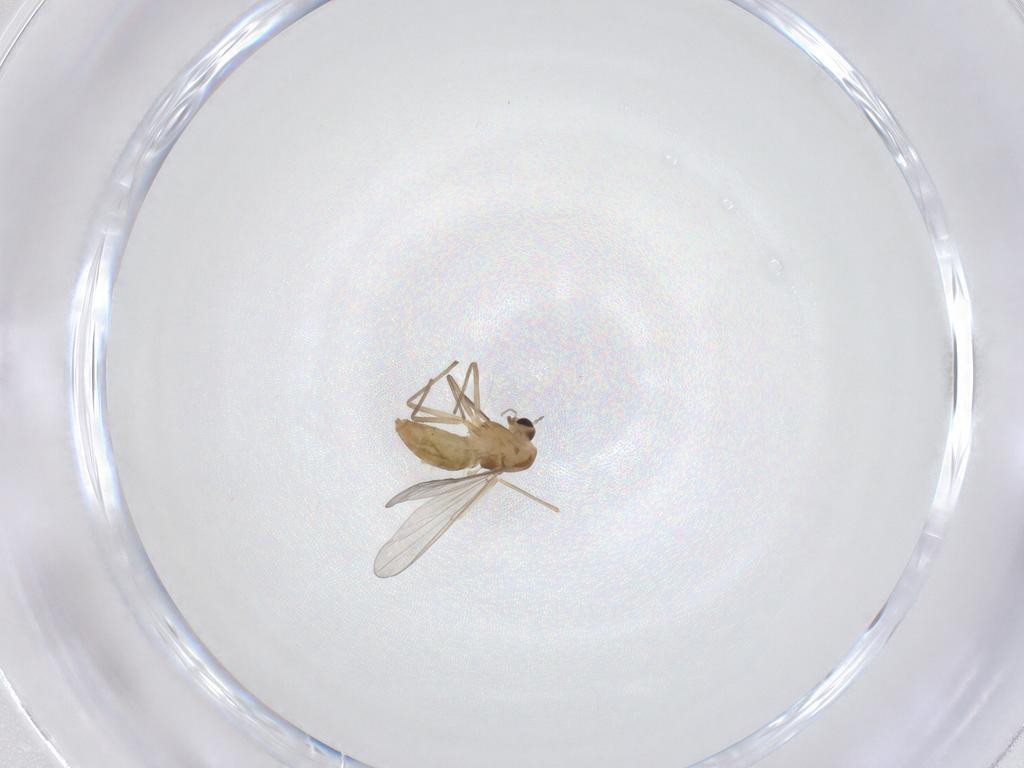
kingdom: Animalia
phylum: Arthropoda
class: Insecta
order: Diptera
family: Chironomidae
